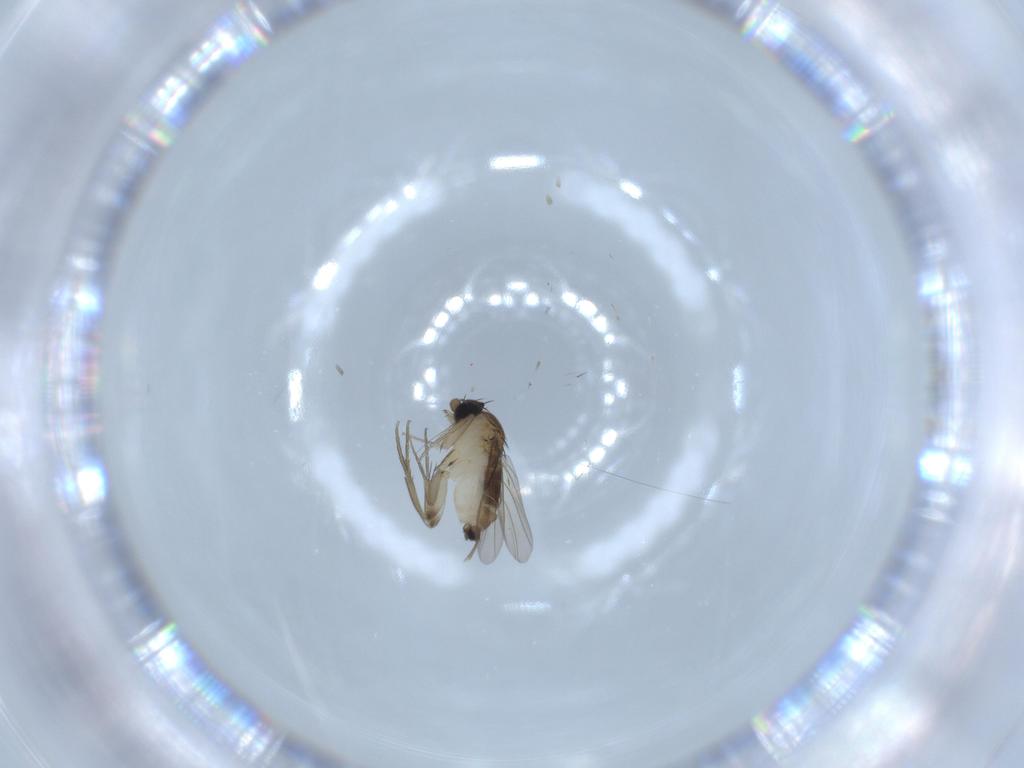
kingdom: Animalia
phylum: Arthropoda
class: Insecta
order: Diptera
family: Phoridae
